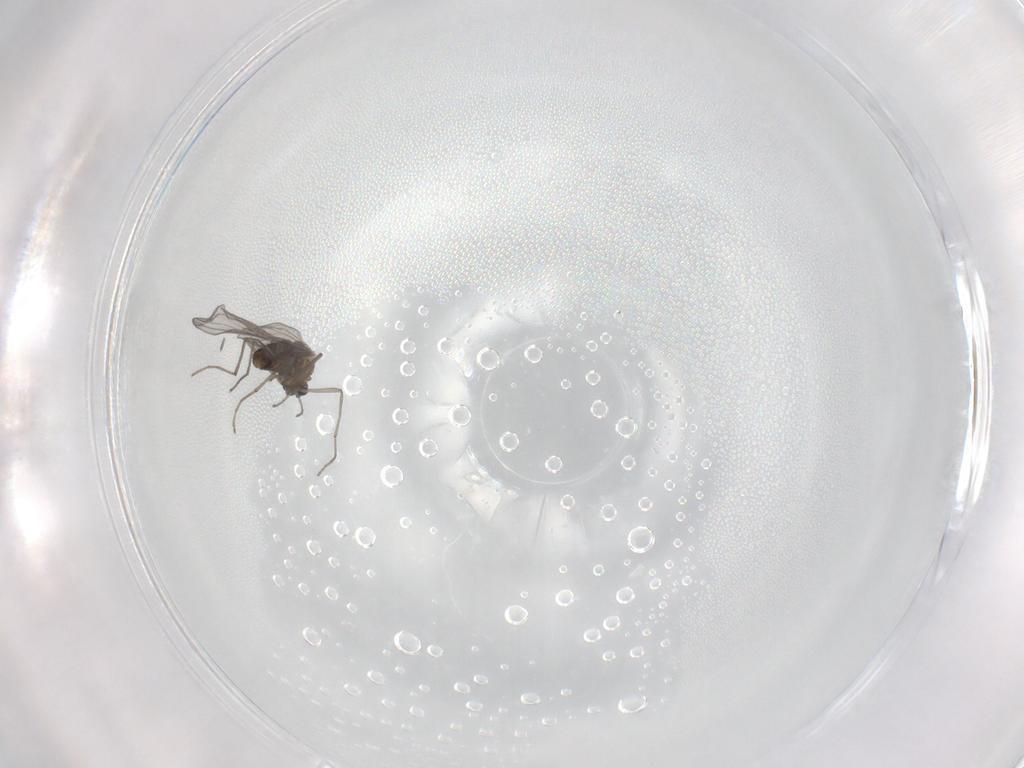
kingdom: Animalia
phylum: Arthropoda
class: Insecta
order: Diptera
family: Chironomidae
